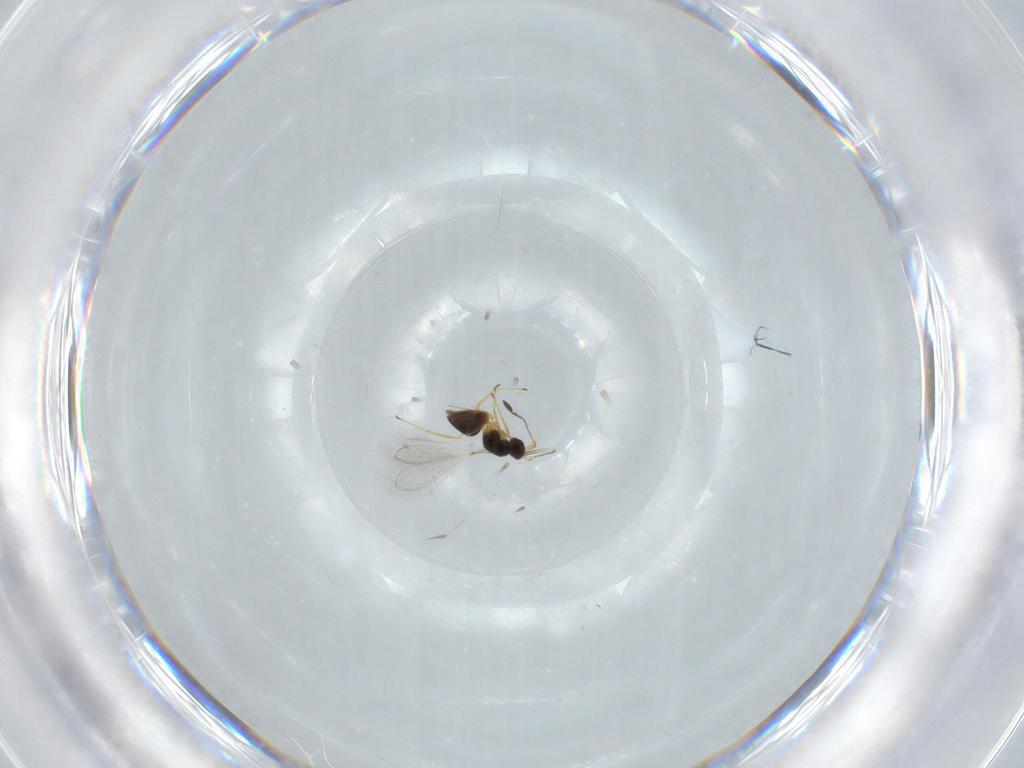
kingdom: Animalia
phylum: Arthropoda
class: Insecta
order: Hymenoptera
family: Mymaridae
